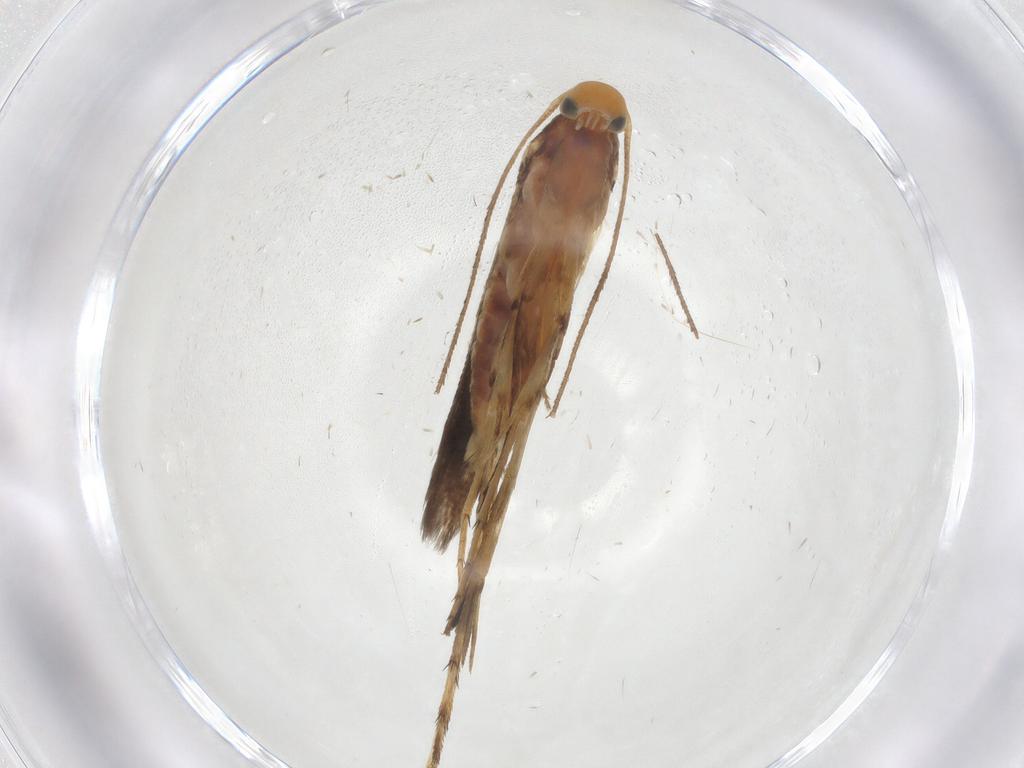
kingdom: Animalia
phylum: Arthropoda
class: Insecta
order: Lepidoptera
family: Heliodinidae
